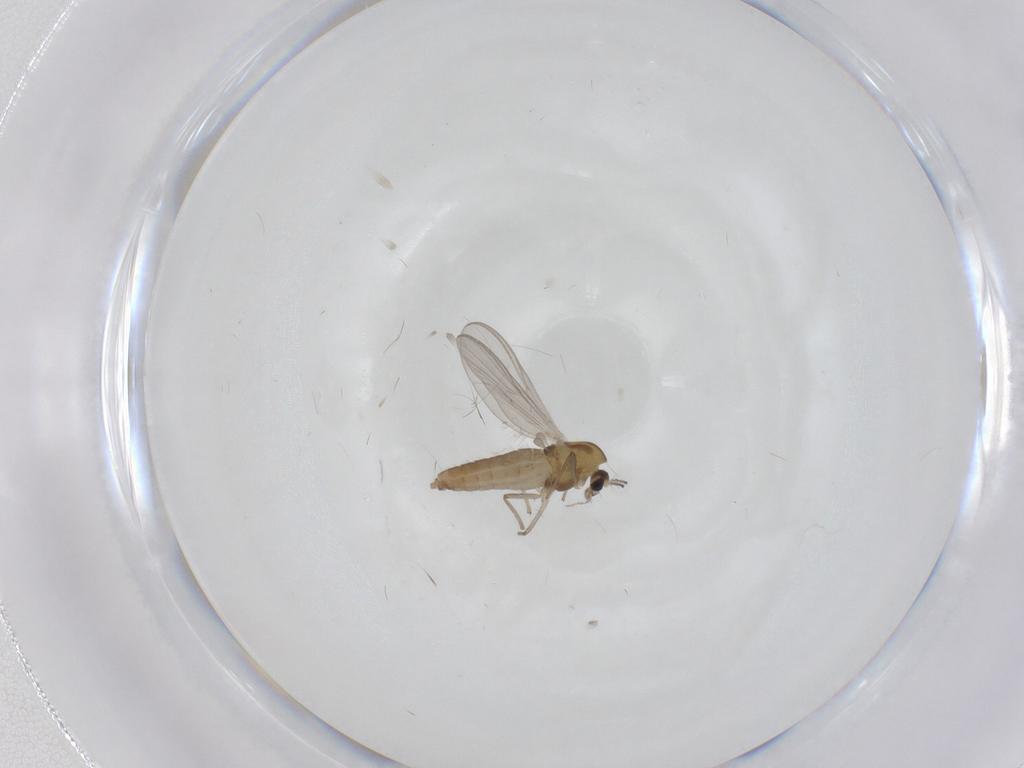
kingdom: Animalia
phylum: Arthropoda
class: Insecta
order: Diptera
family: Chironomidae
